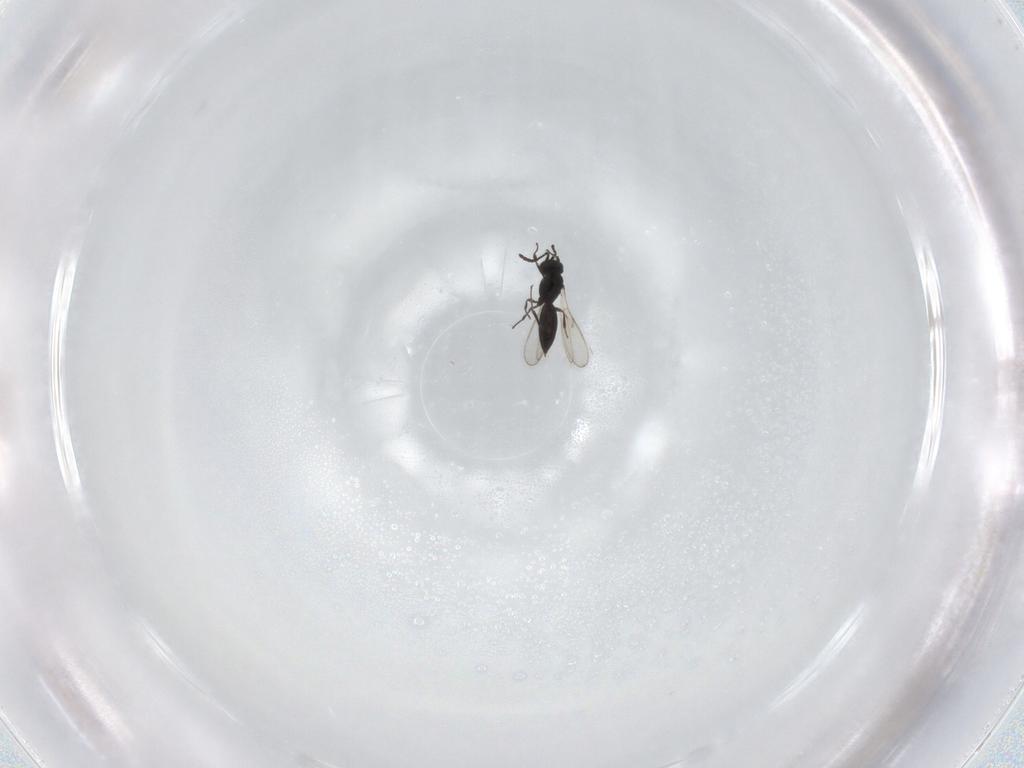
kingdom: Animalia
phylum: Arthropoda
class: Insecta
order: Hymenoptera
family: Scelionidae
